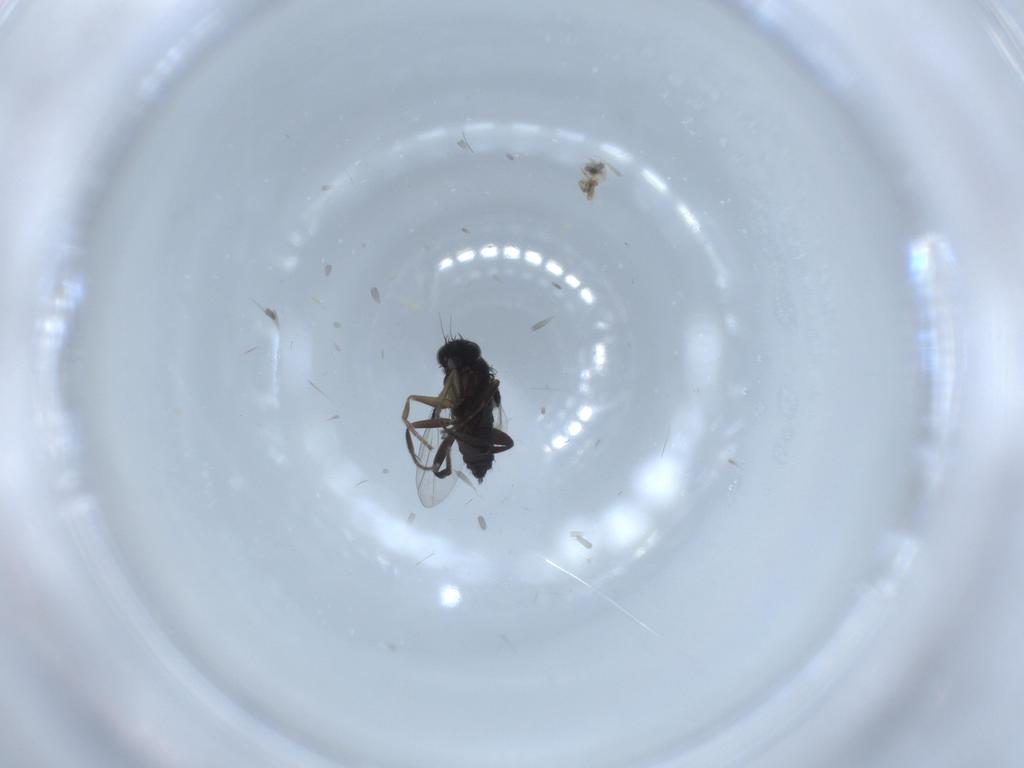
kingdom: Animalia
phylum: Arthropoda
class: Insecta
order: Diptera
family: Phoridae
